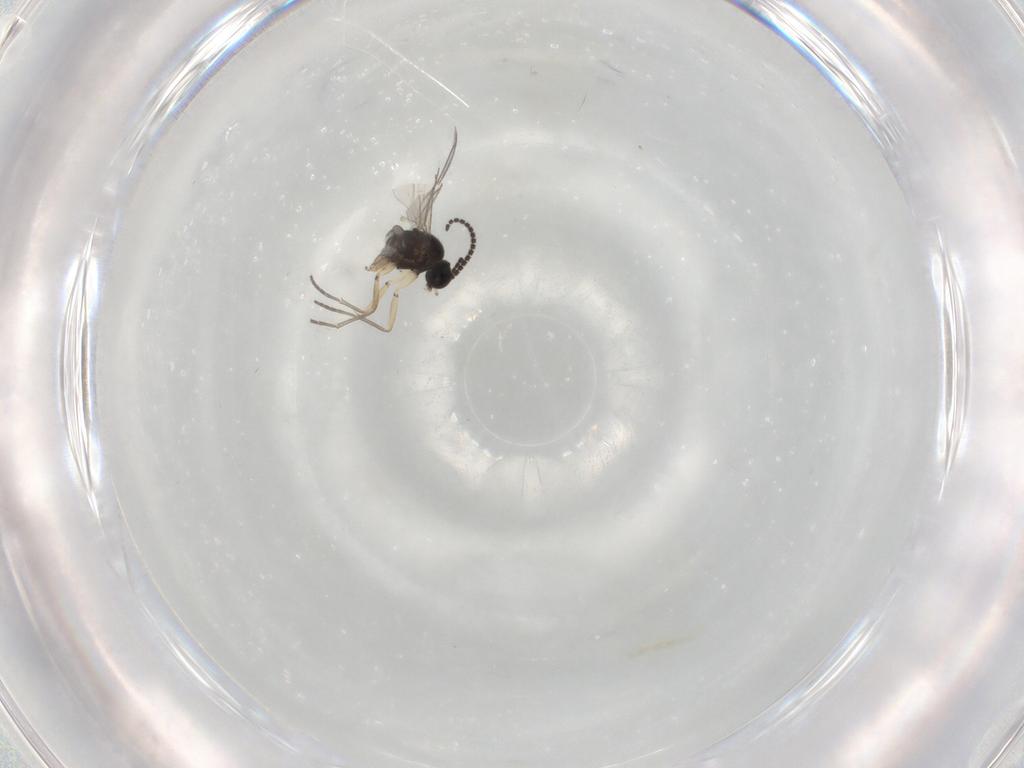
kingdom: Animalia
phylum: Arthropoda
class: Insecta
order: Diptera
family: Sciaridae
